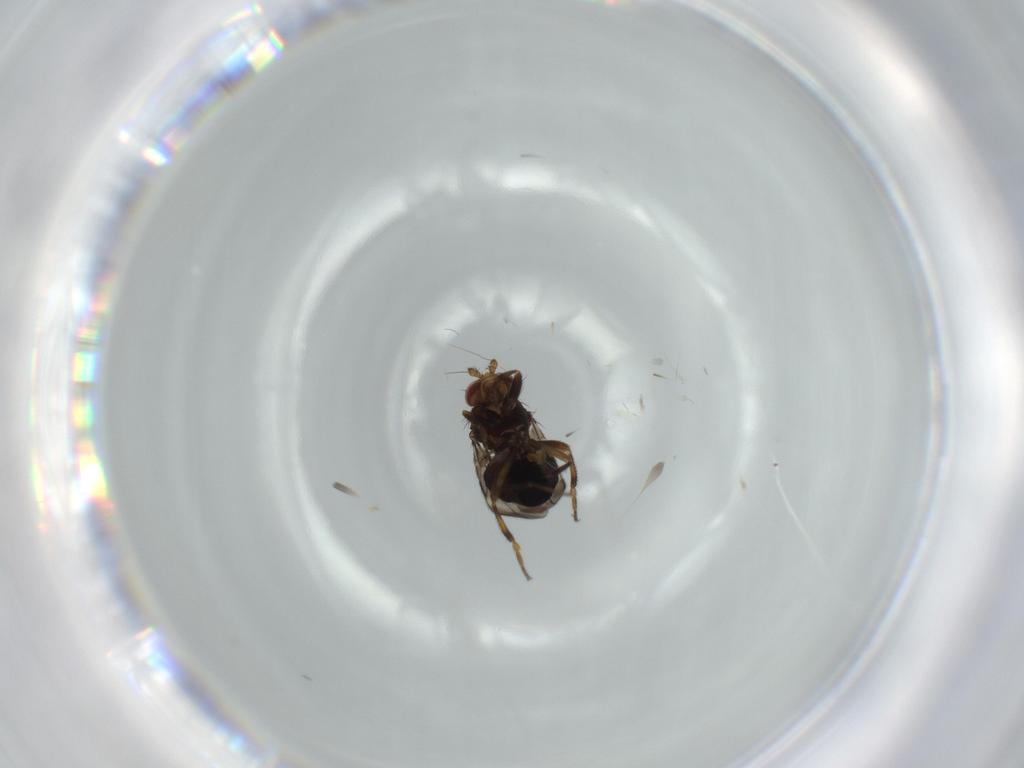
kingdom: Animalia
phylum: Arthropoda
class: Insecta
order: Diptera
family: Sphaeroceridae
